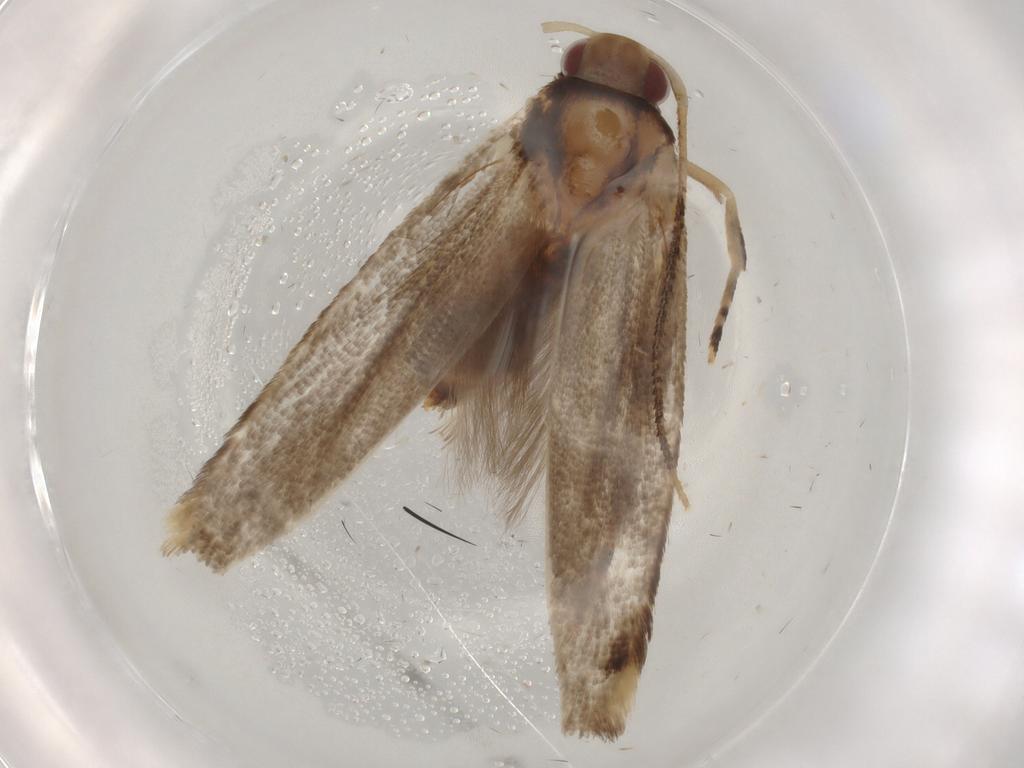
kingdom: Animalia
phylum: Arthropoda
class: Insecta
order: Lepidoptera
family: Cosmopterigidae
